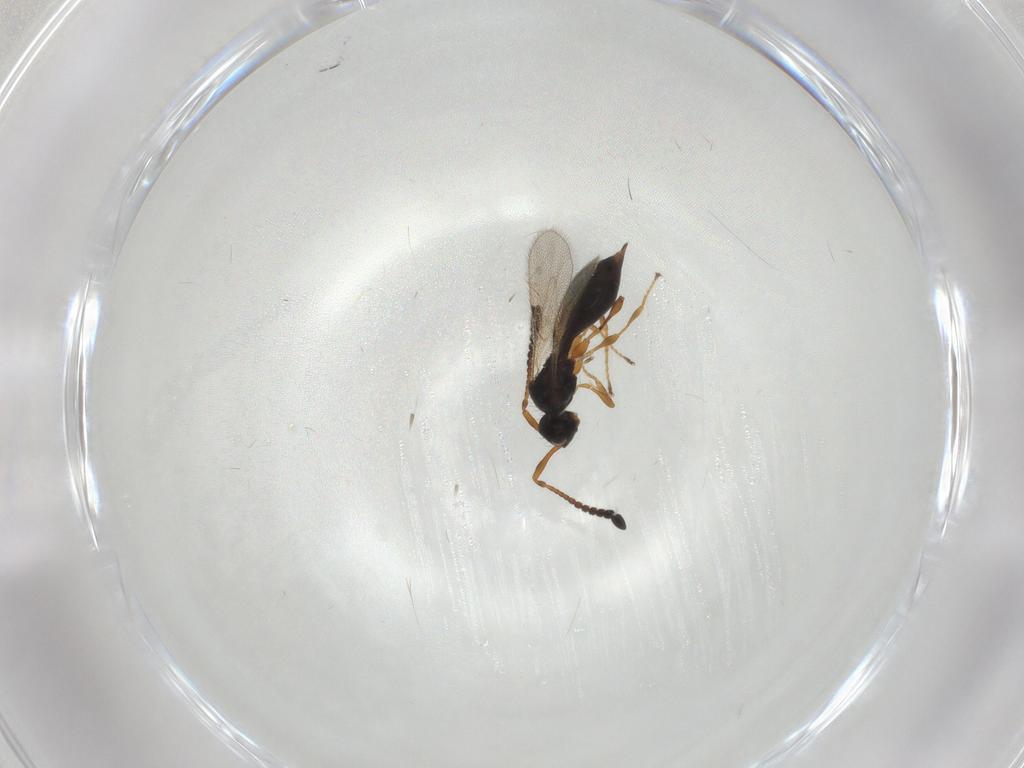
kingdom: Animalia
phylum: Arthropoda
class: Insecta
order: Hymenoptera
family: Diapriidae
